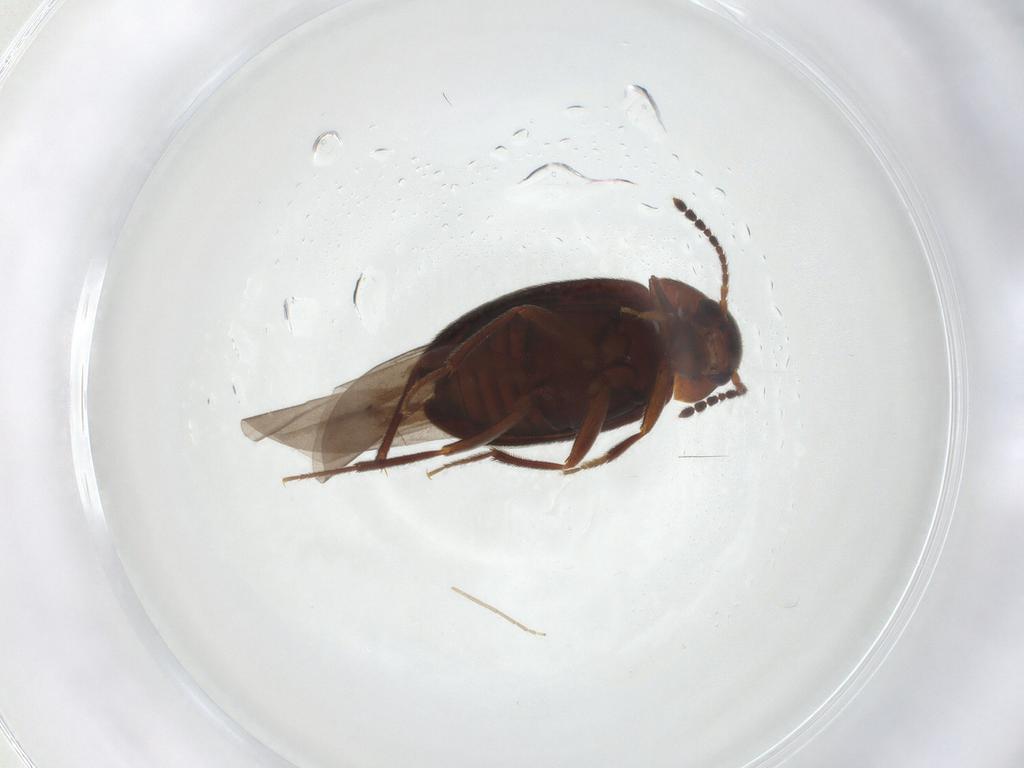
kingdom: Animalia
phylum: Arthropoda
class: Insecta
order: Coleoptera
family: Leiodidae
